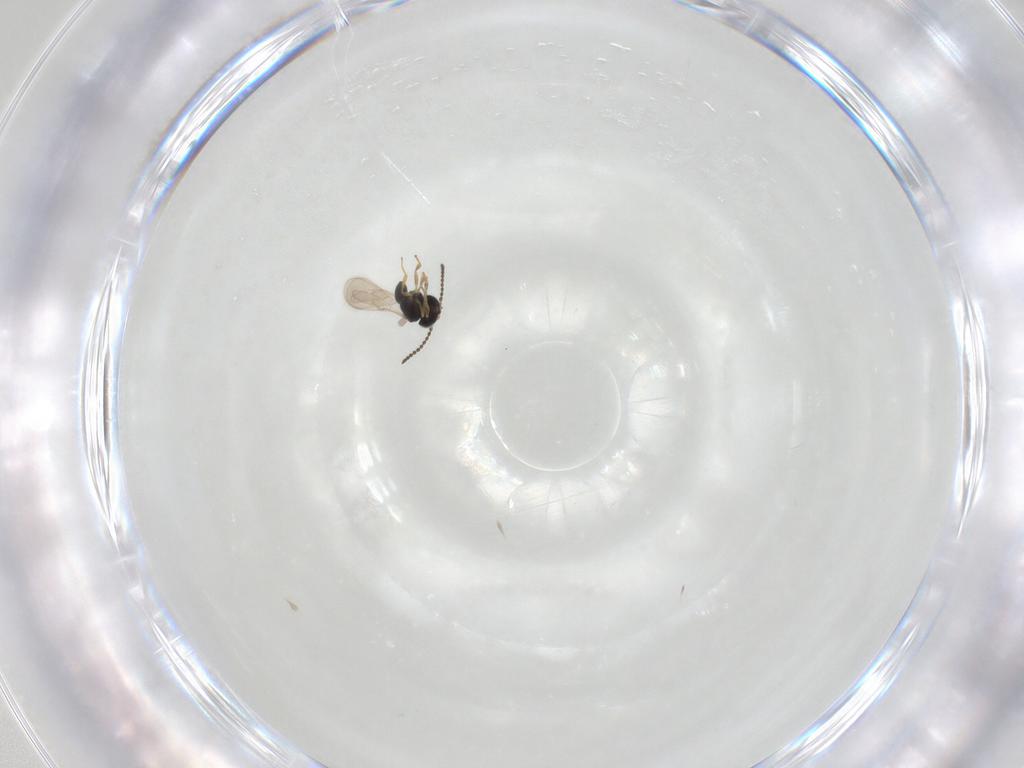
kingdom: Animalia
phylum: Arthropoda
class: Insecta
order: Hymenoptera
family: Scelionidae
